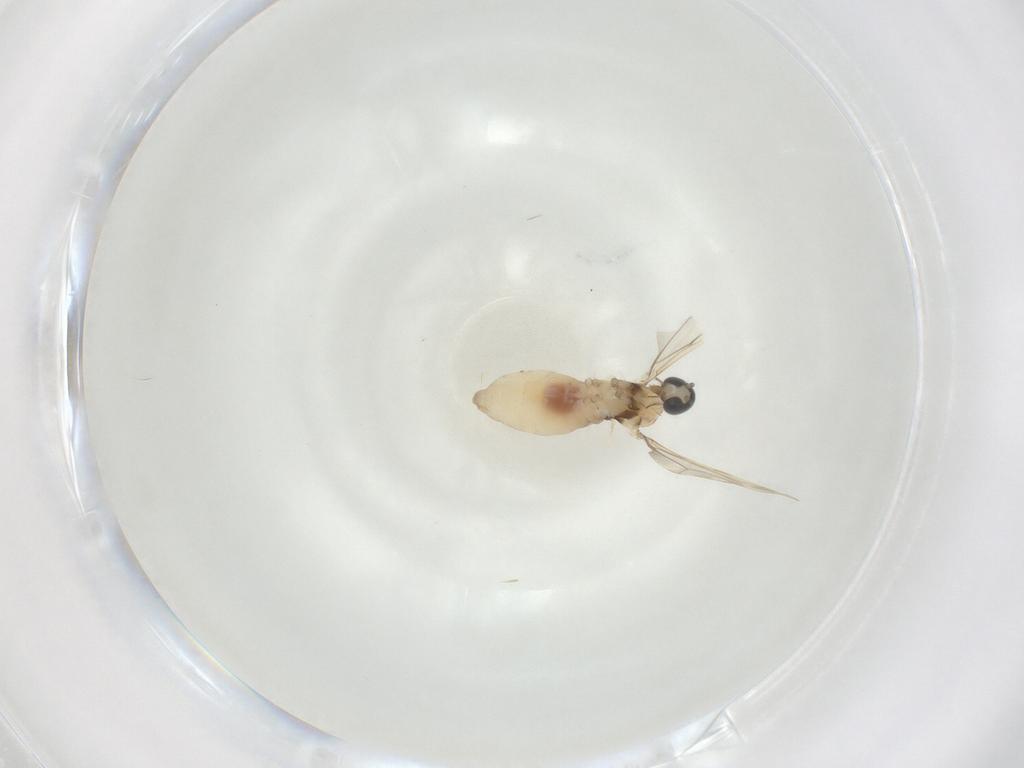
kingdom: Animalia
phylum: Arthropoda
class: Insecta
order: Diptera
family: Cecidomyiidae
